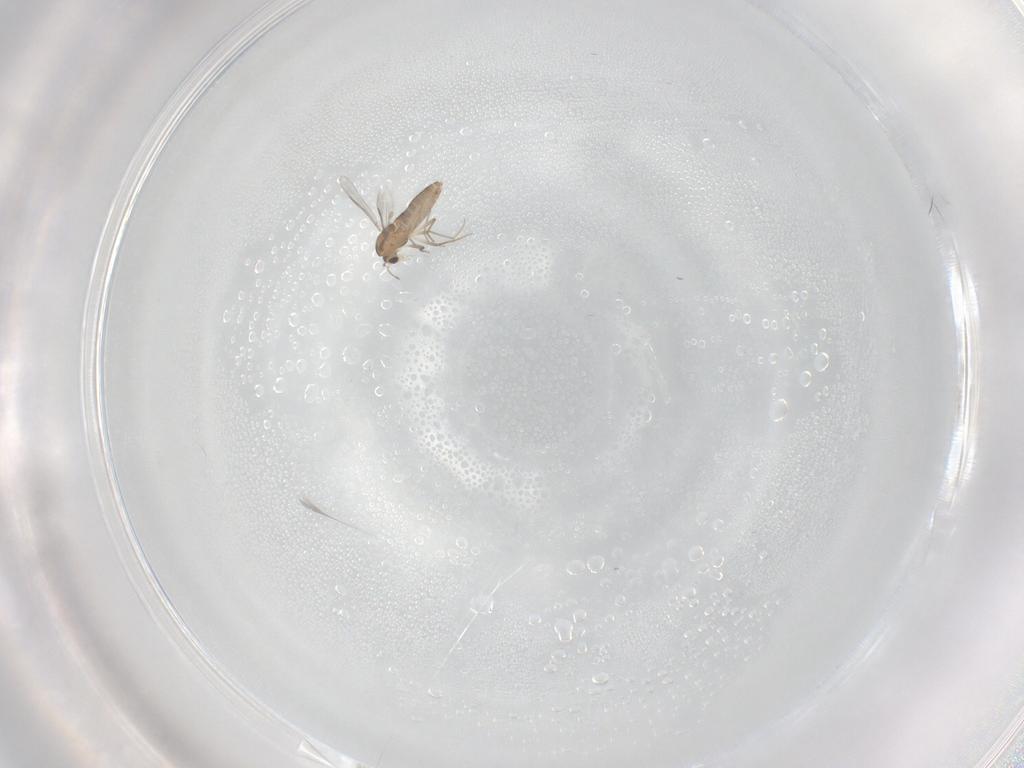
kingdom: Animalia
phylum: Arthropoda
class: Insecta
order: Diptera
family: Chironomidae
